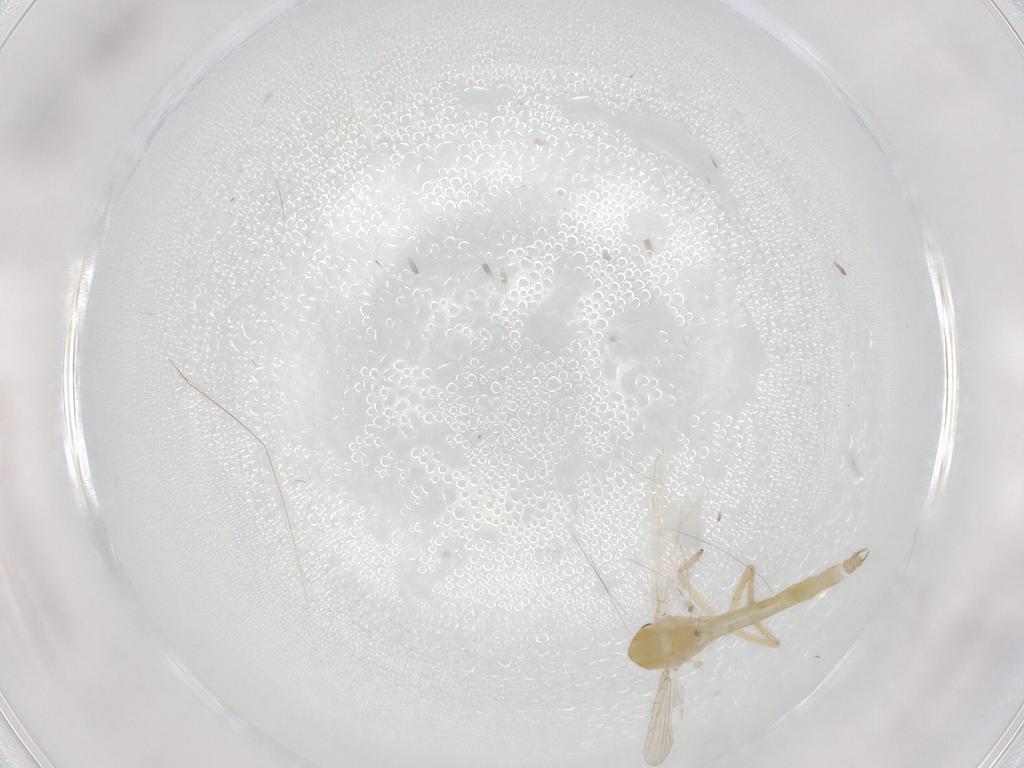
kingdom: Animalia
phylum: Arthropoda
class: Insecta
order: Diptera
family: Chironomidae
